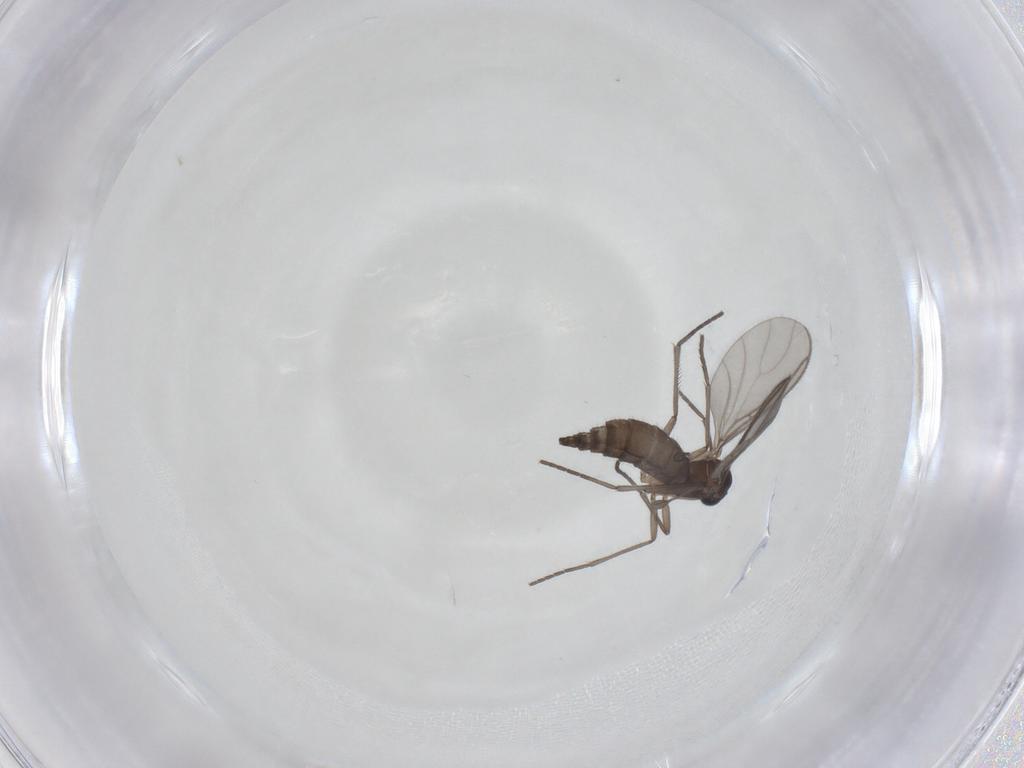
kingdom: Animalia
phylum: Arthropoda
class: Insecta
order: Diptera
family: Sciaridae
